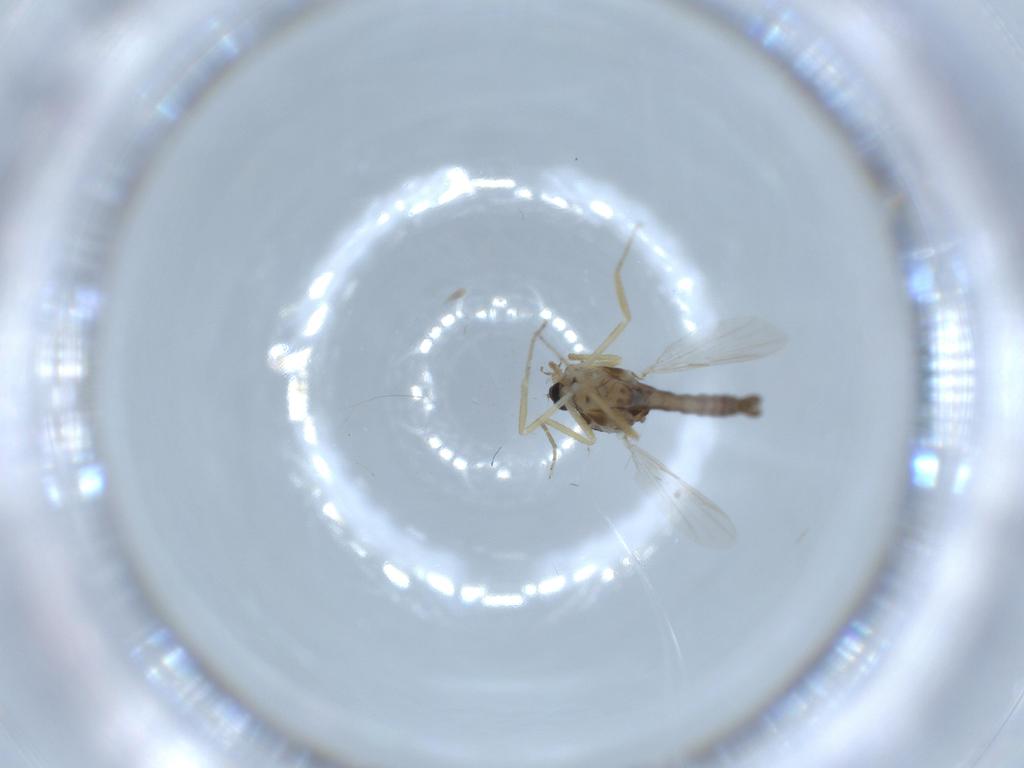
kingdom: Animalia
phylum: Arthropoda
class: Insecta
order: Diptera
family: Ceratopogonidae
